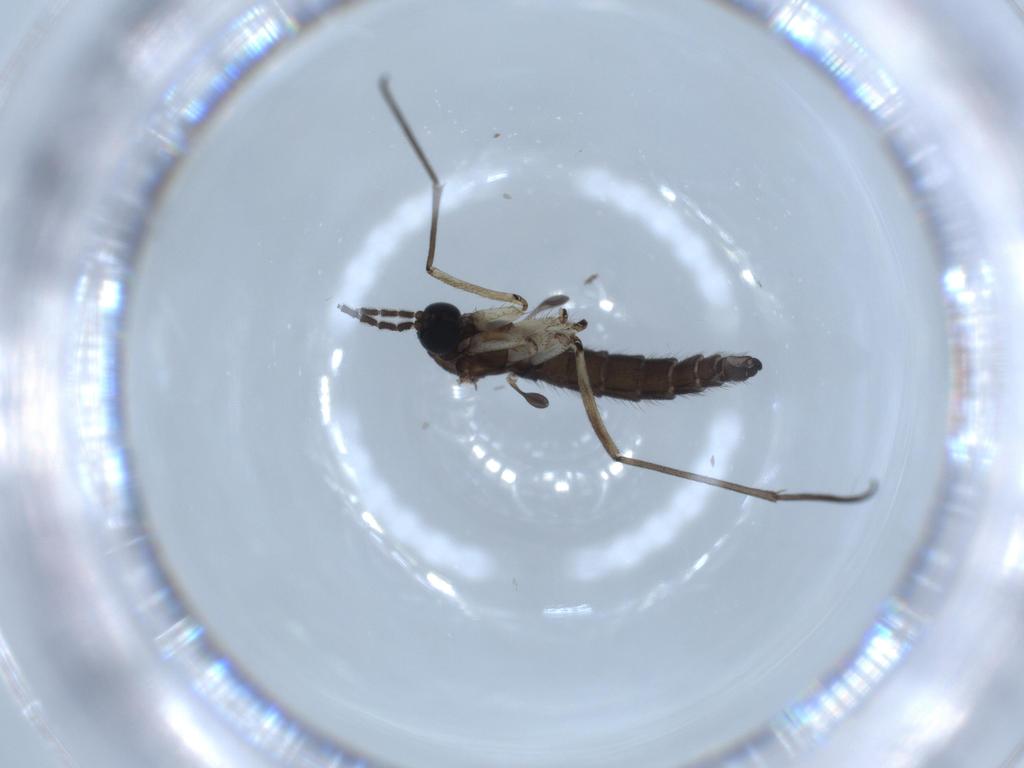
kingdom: Animalia
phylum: Arthropoda
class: Insecta
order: Diptera
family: Sciaridae
